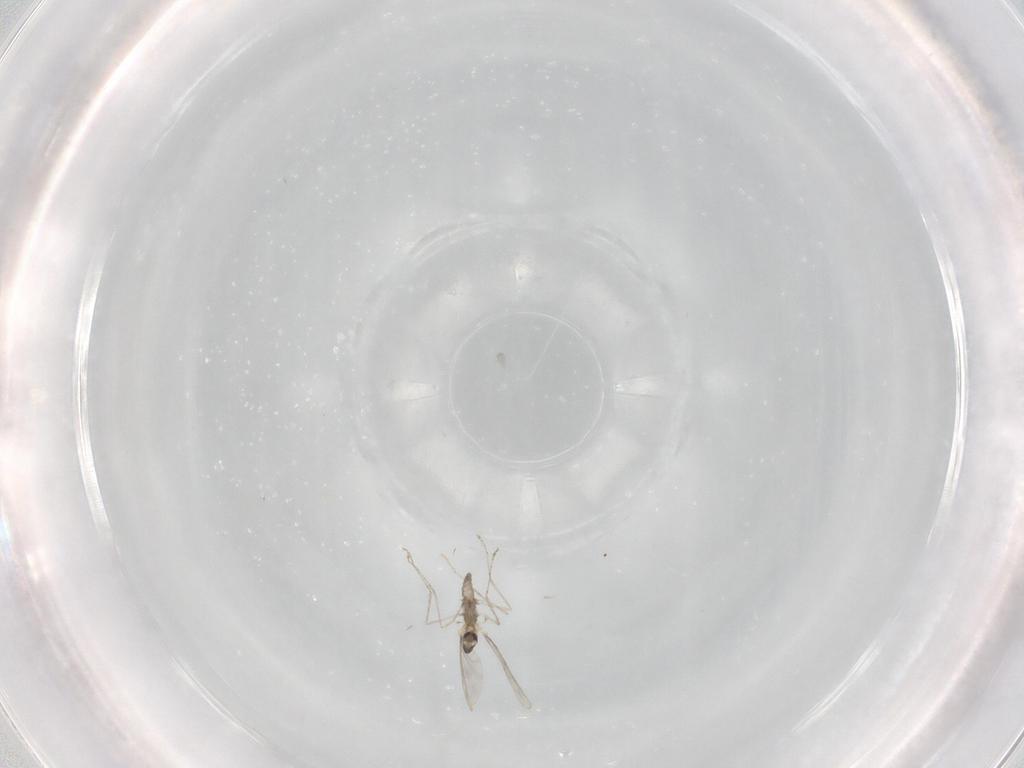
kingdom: Animalia
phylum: Arthropoda
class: Insecta
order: Diptera
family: Cecidomyiidae
